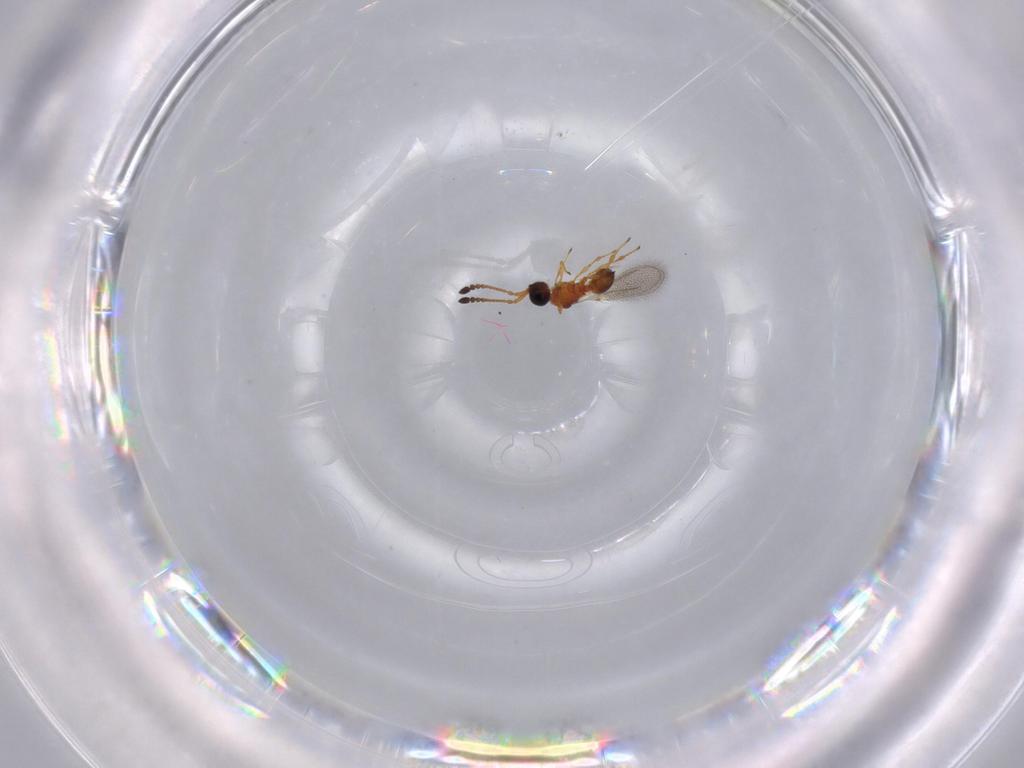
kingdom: Animalia
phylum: Arthropoda
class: Insecta
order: Hymenoptera
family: Diapriidae
